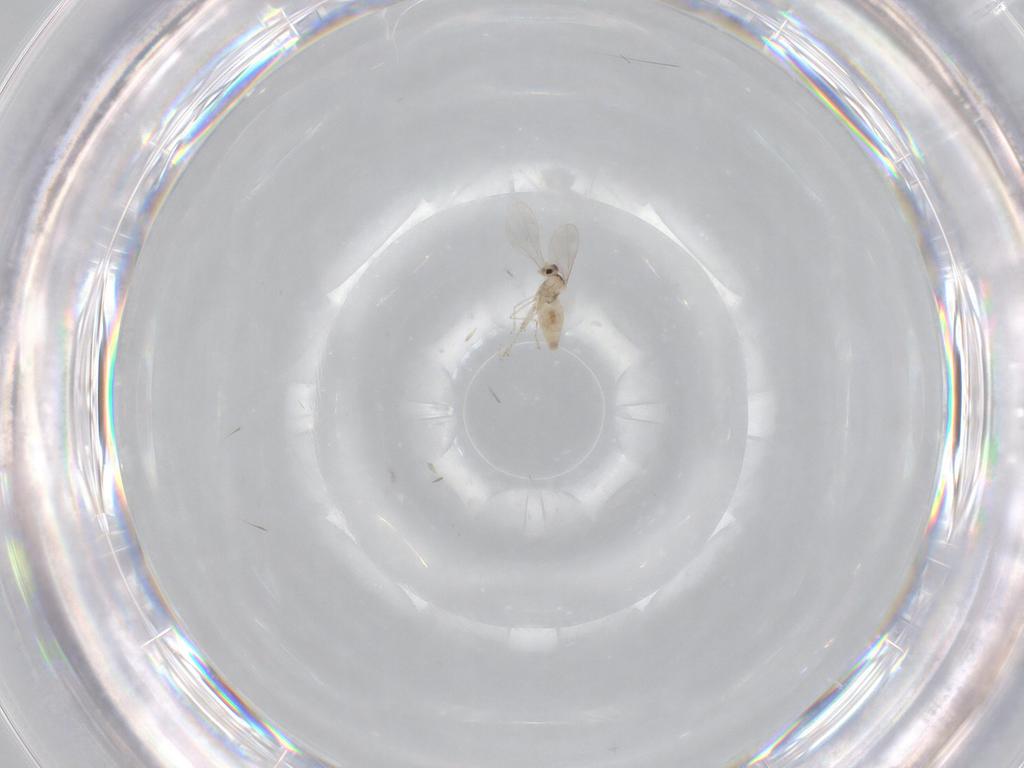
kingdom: Animalia
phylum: Arthropoda
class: Insecta
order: Diptera
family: Cecidomyiidae
